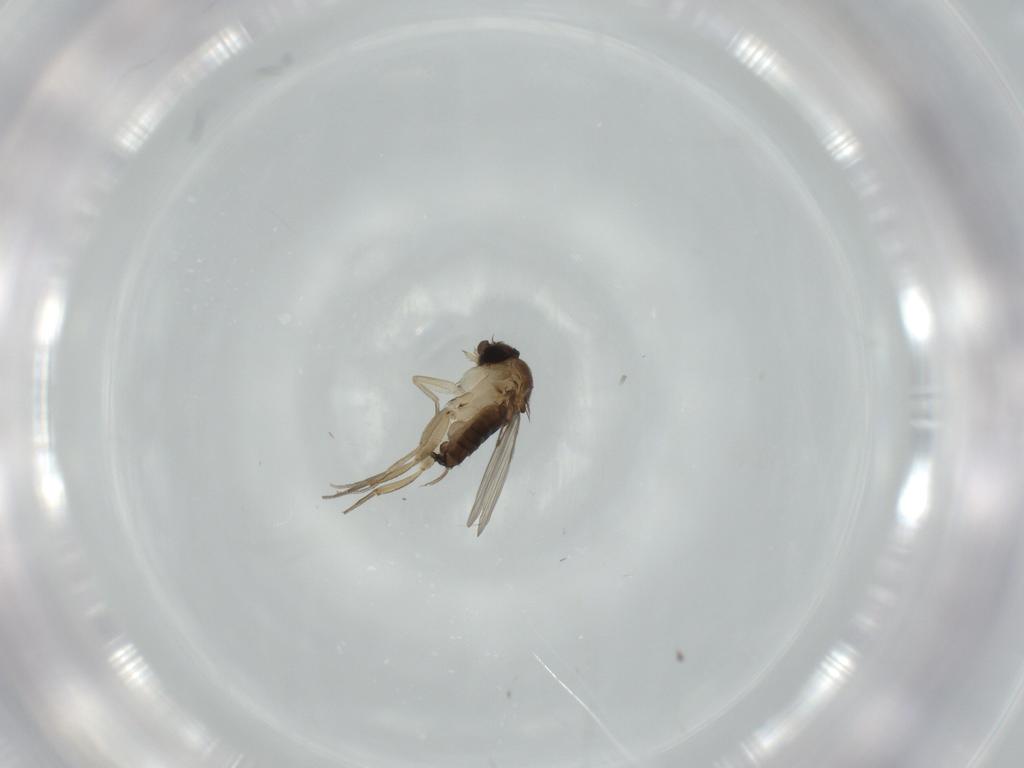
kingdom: Animalia
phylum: Arthropoda
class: Insecta
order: Diptera
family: Phoridae
